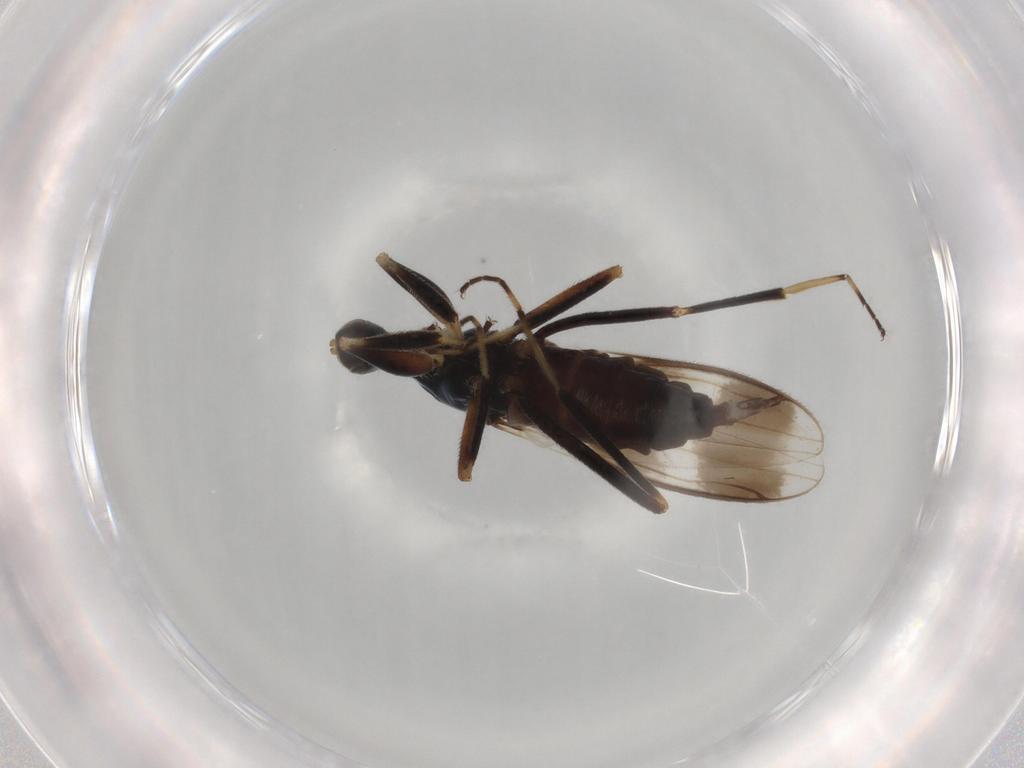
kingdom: Animalia
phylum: Arthropoda
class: Insecta
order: Diptera
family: Hybotidae
